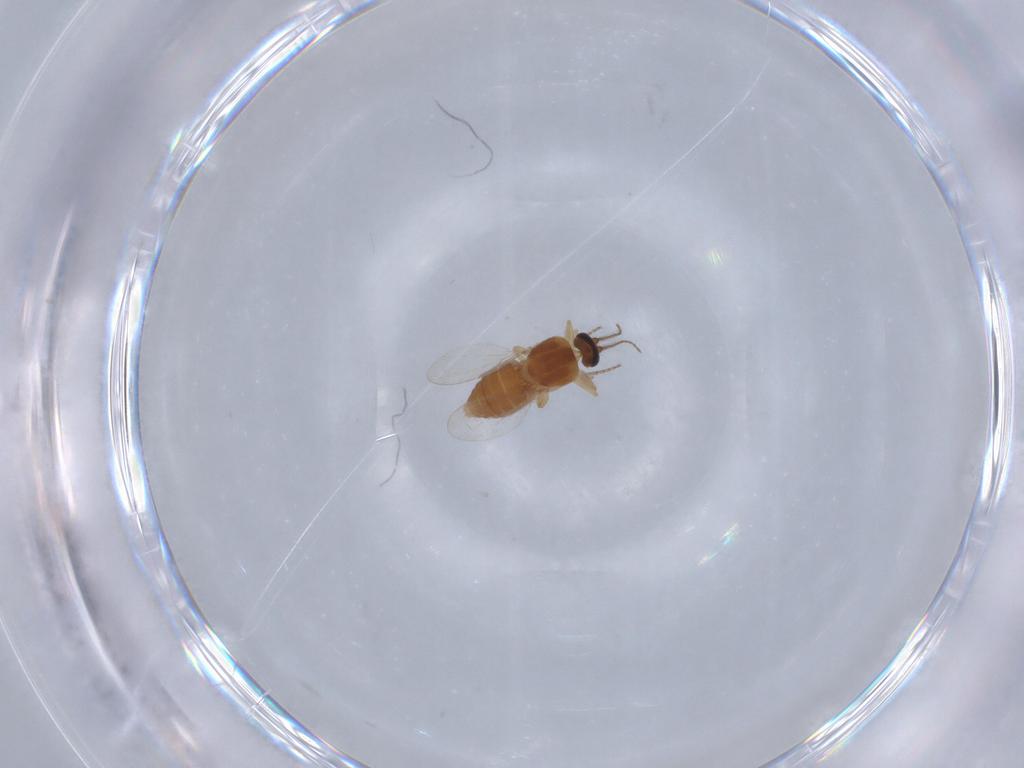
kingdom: Animalia
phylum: Arthropoda
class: Insecta
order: Diptera
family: Ceratopogonidae
